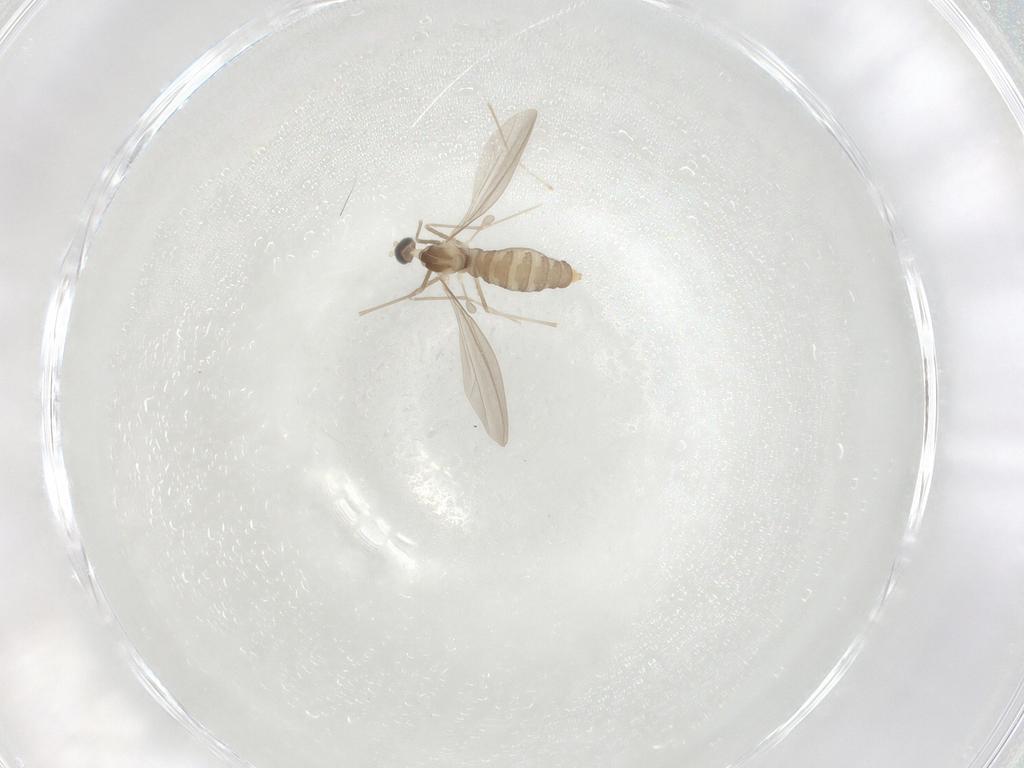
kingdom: Animalia
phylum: Arthropoda
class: Insecta
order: Diptera
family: Cecidomyiidae
